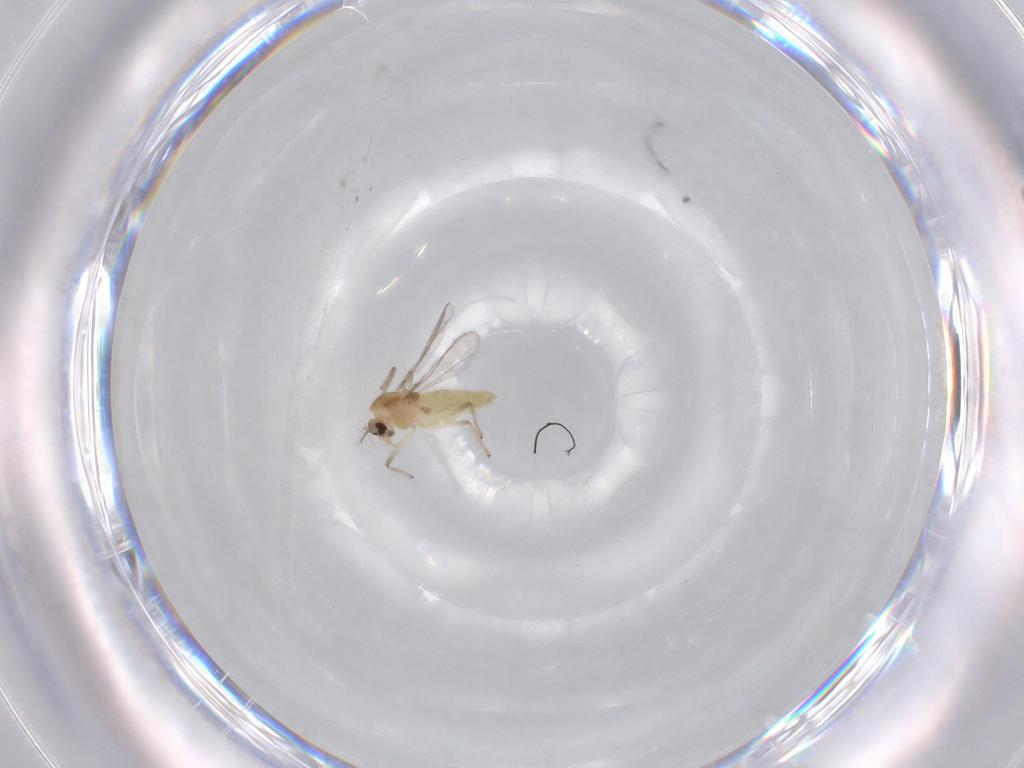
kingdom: Animalia
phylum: Arthropoda
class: Insecta
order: Diptera
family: Chironomidae
